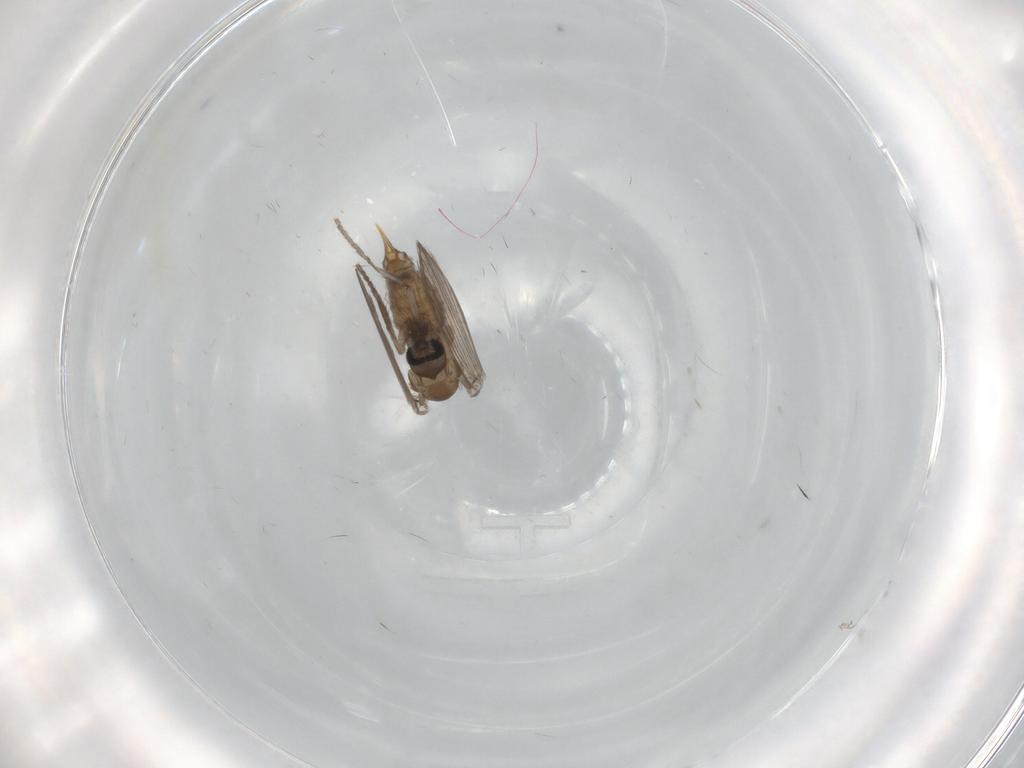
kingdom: Animalia
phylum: Arthropoda
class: Insecta
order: Diptera
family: Psychodidae
